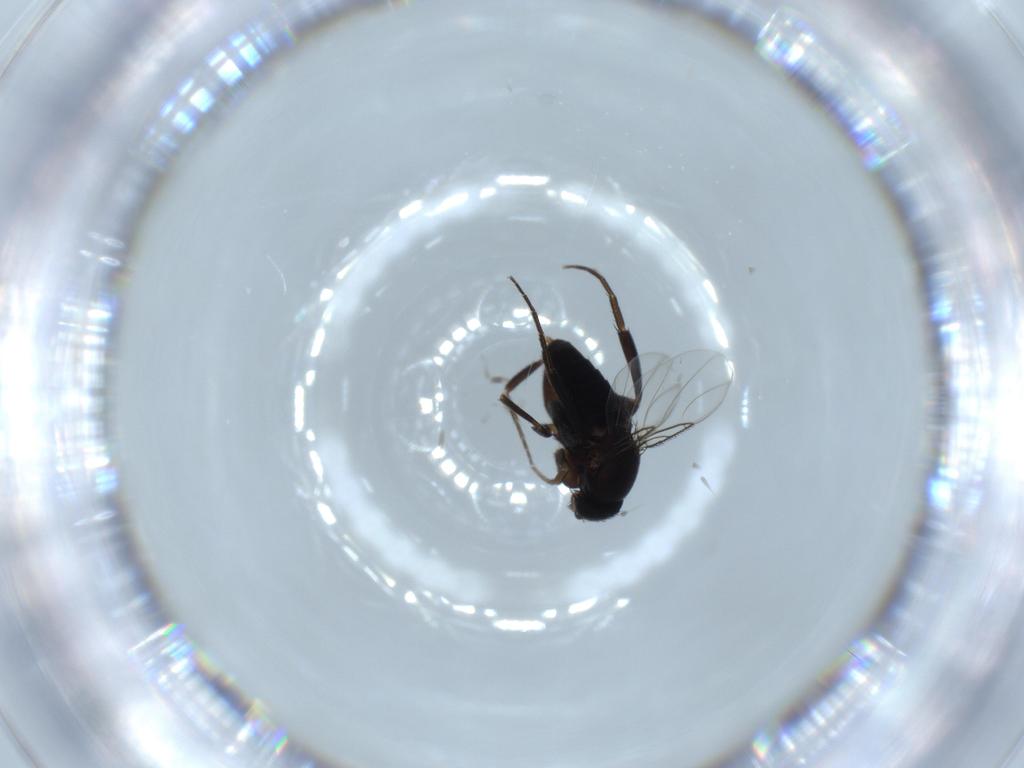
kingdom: Animalia
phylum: Arthropoda
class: Insecta
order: Diptera
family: Phoridae
